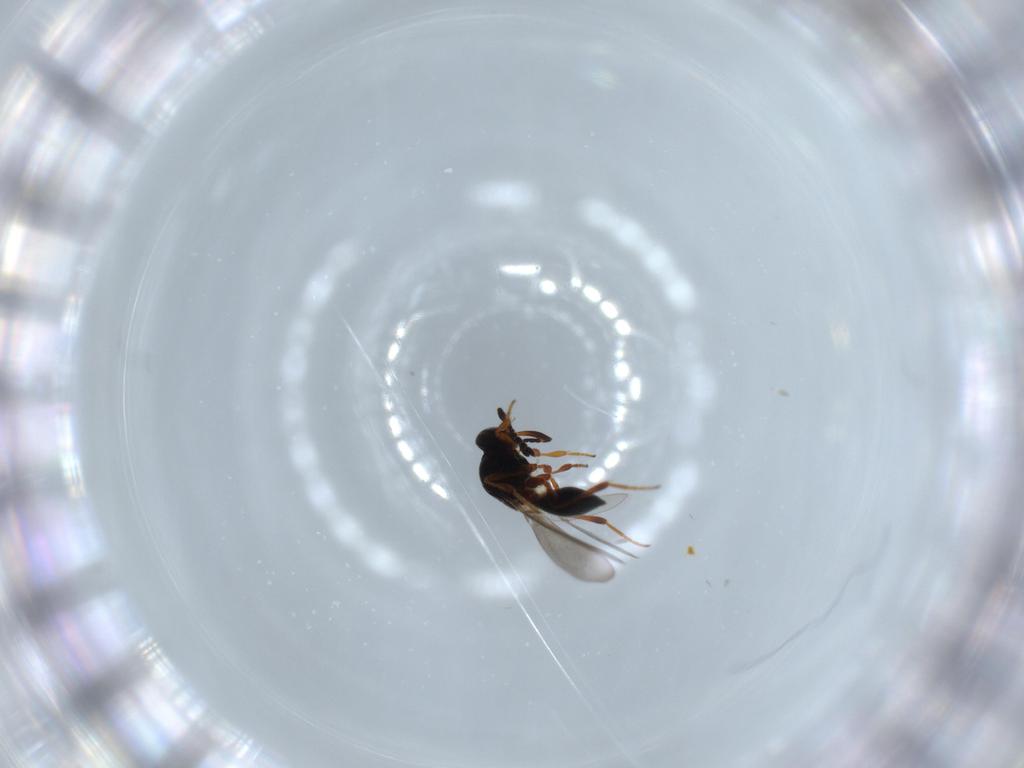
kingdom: Animalia
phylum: Arthropoda
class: Insecta
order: Hymenoptera
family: Platygastridae
